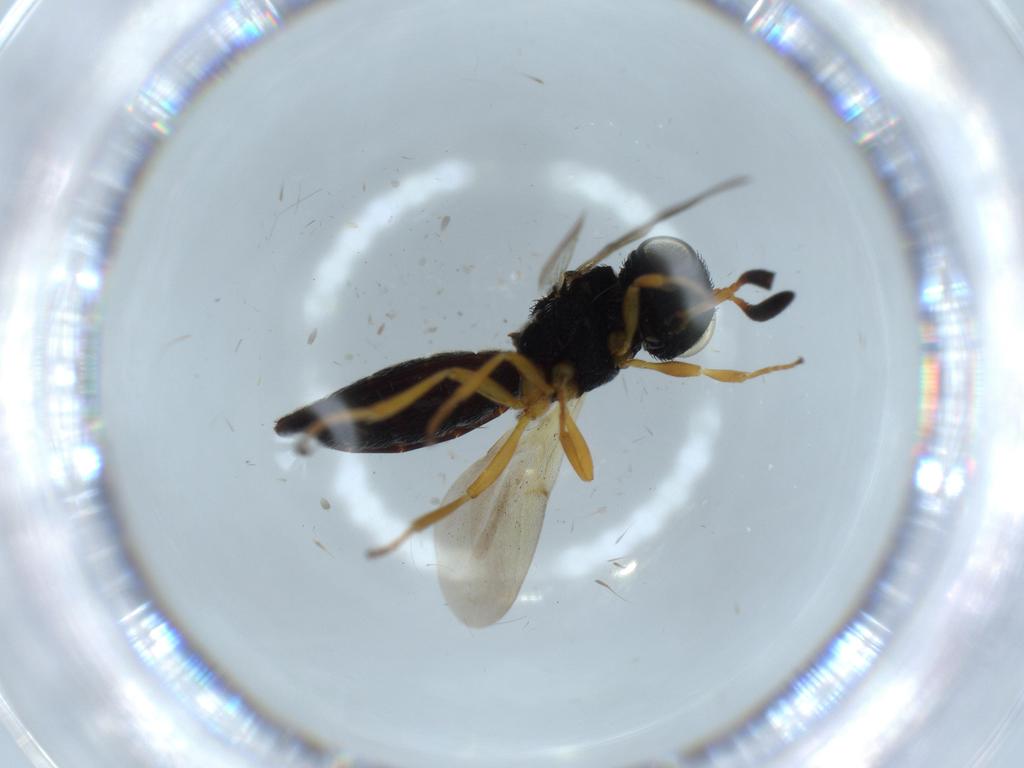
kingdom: Animalia
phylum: Arthropoda
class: Insecta
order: Hymenoptera
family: Scelionidae
